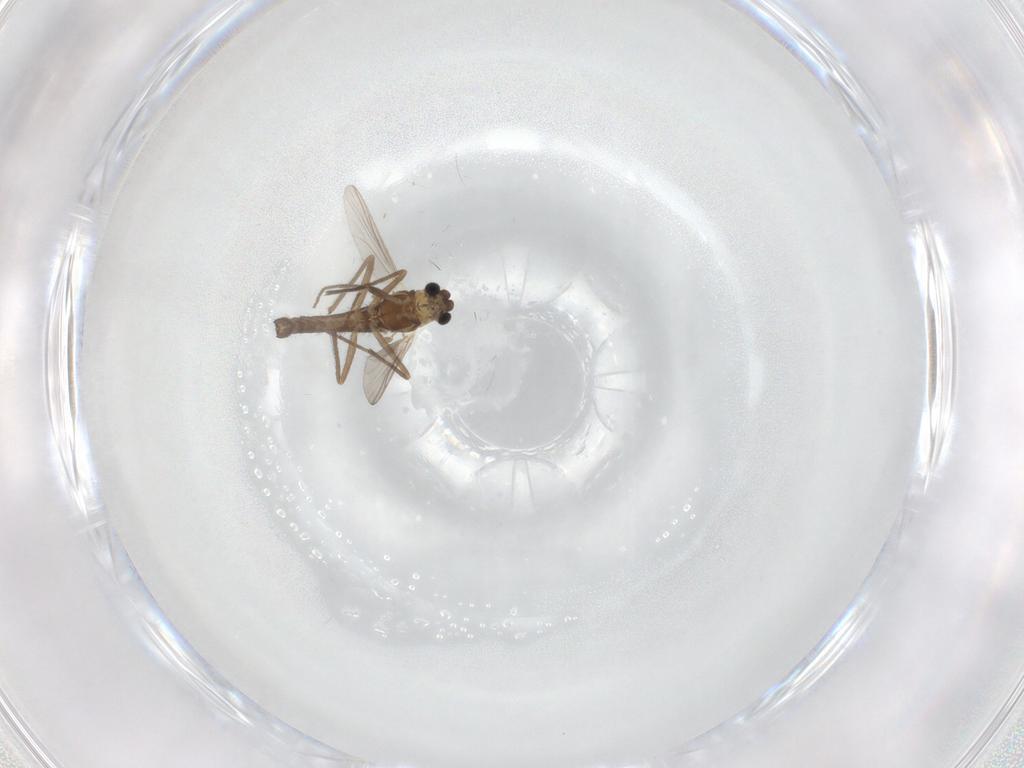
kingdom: Animalia
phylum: Arthropoda
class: Insecta
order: Diptera
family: Chironomidae
